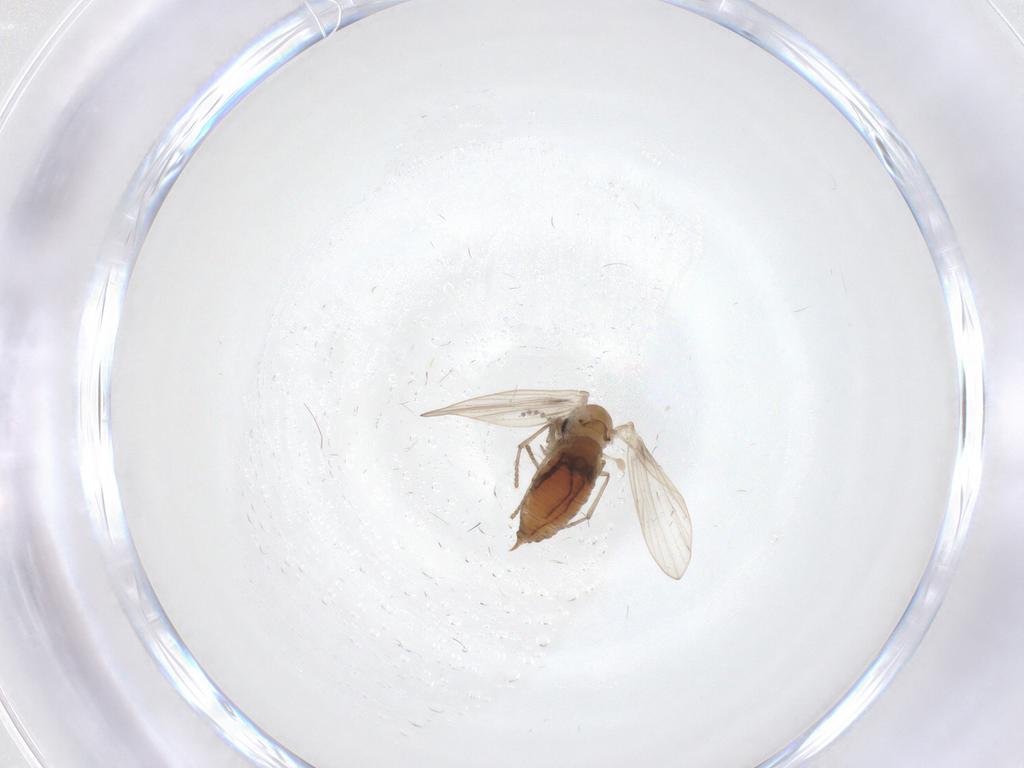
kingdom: Animalia
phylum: Arthropoda
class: Insecta
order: Diptera
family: Psychodidae
